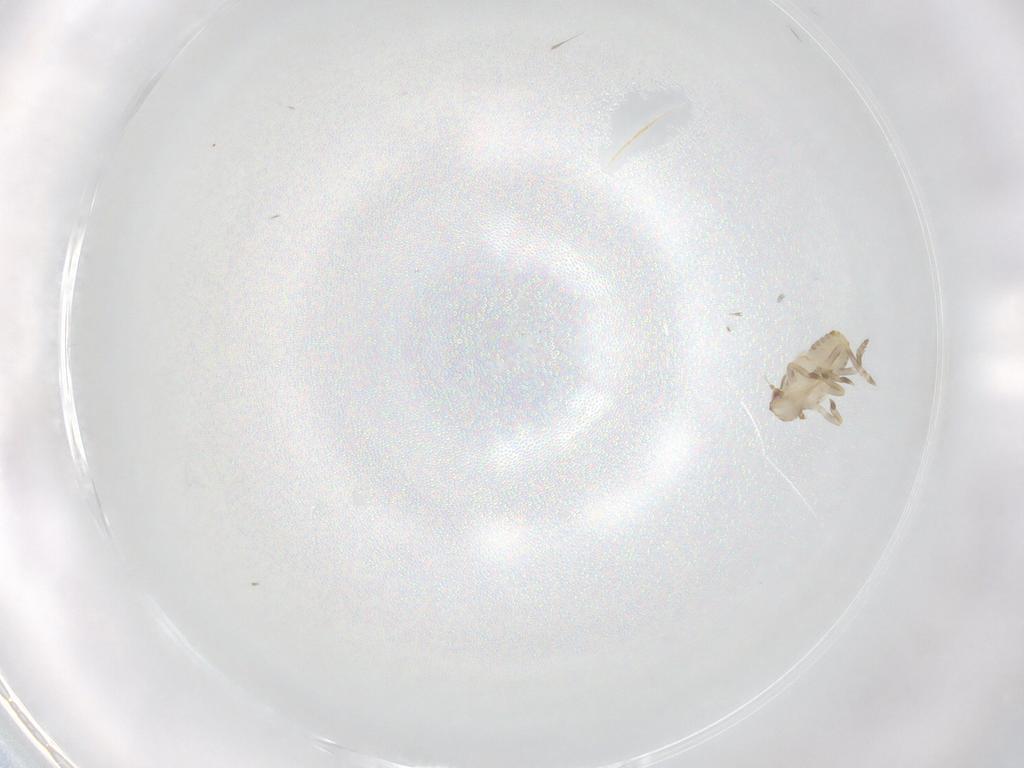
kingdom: Animalia
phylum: Arthropoda
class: Insecta
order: Hemiptera
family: Flatidae
